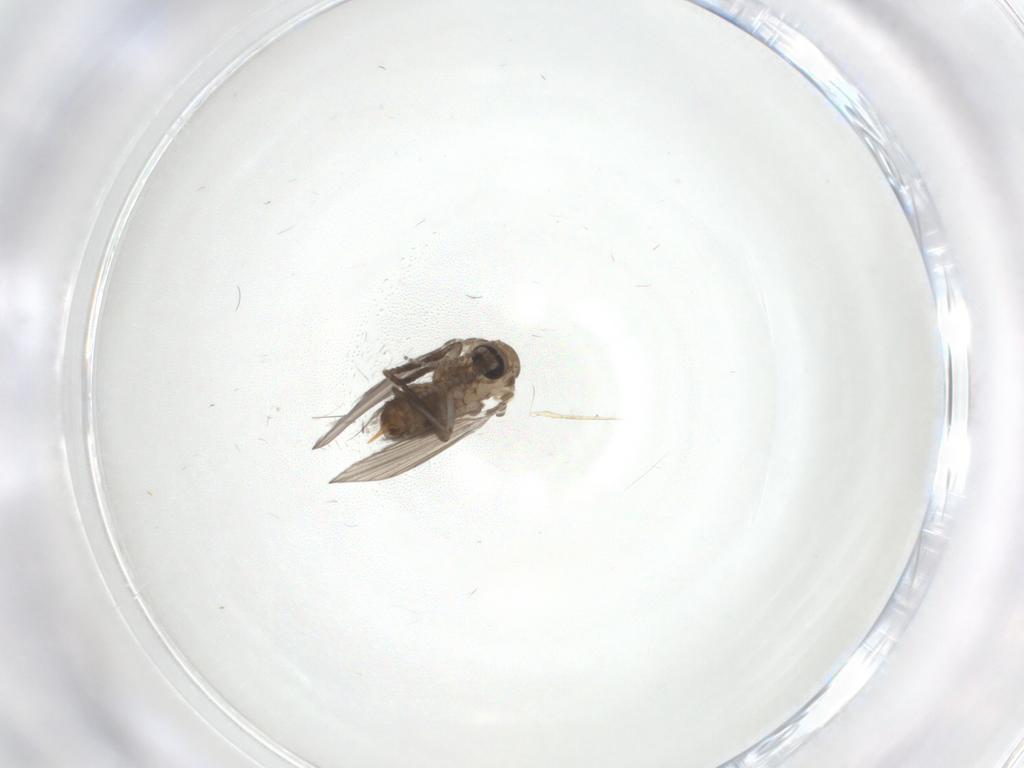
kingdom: Animalia
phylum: Arthropoda
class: Insecta
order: Diptera
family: Psychodidae
